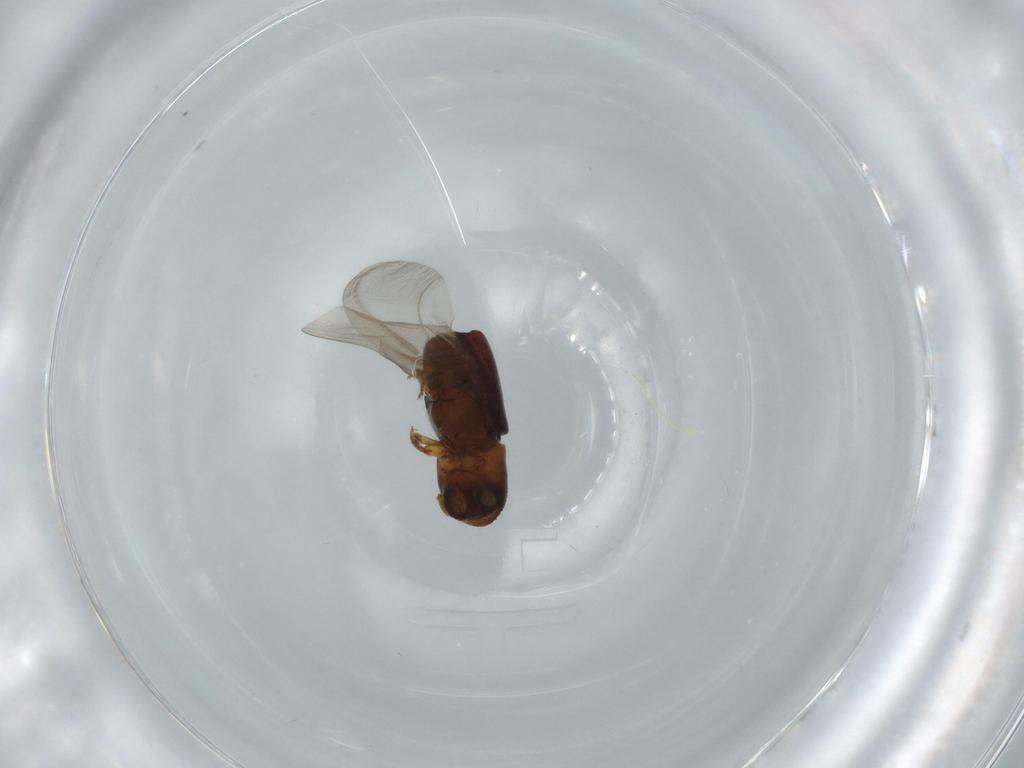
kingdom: Animalia
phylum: Arthropoda
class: Insecta
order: Coleoptera
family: Curculionidae
